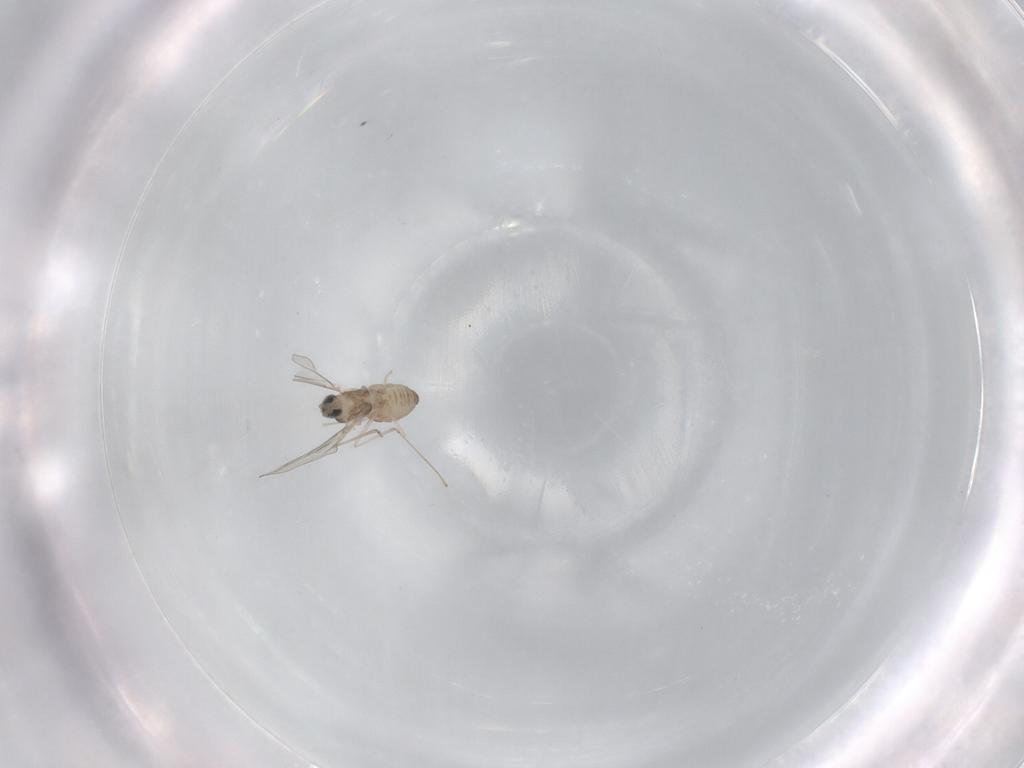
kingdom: Animalia
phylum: Arthropoda
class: Insecta
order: Diptera
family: Cecidomyiidae
